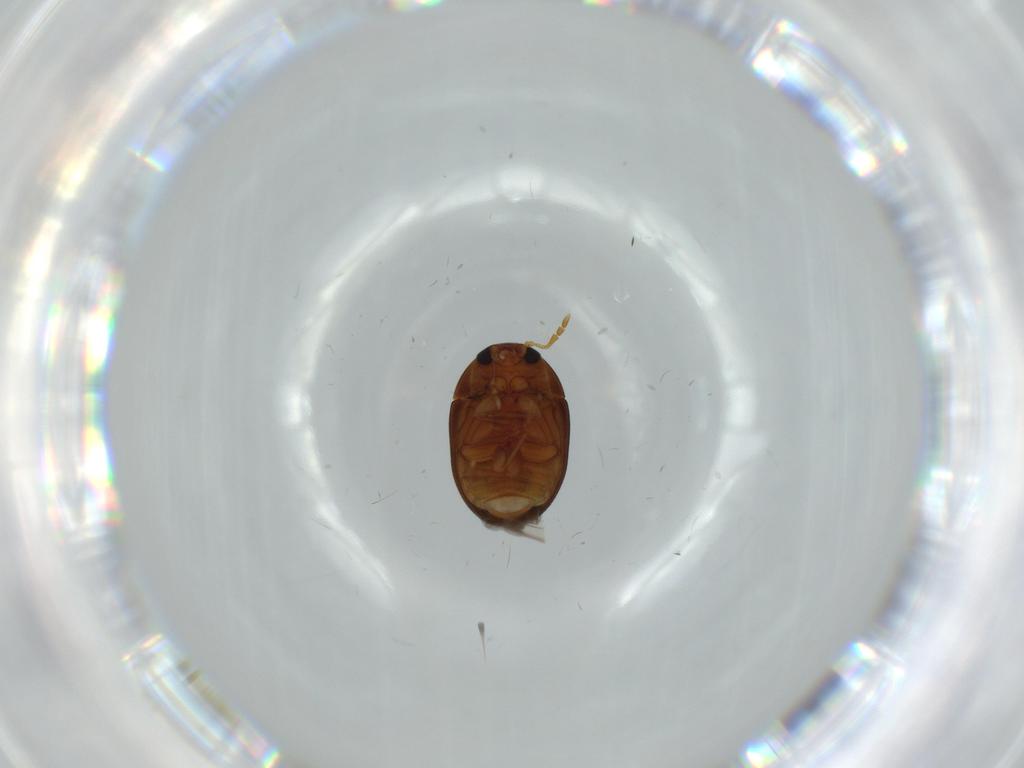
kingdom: Animalia
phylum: Arthropoda
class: Insecta
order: Coleoptera
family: Phalacridae
